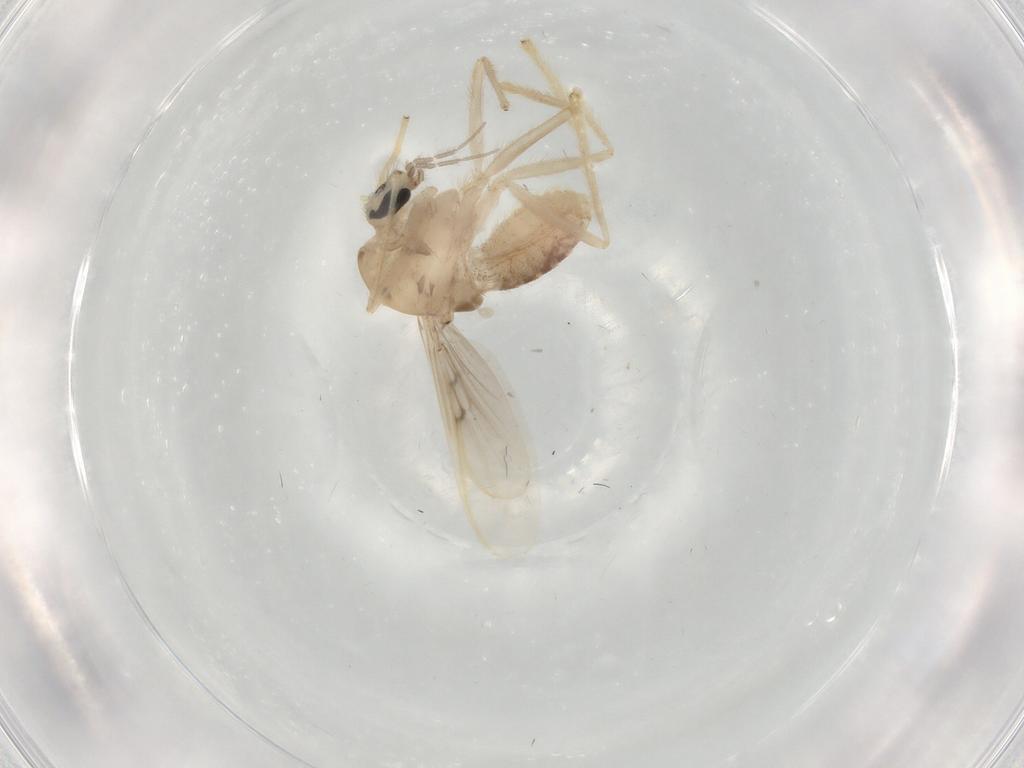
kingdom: Animalia
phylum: Arthropoda
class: Insecta
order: Diptera
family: Chironomidae
